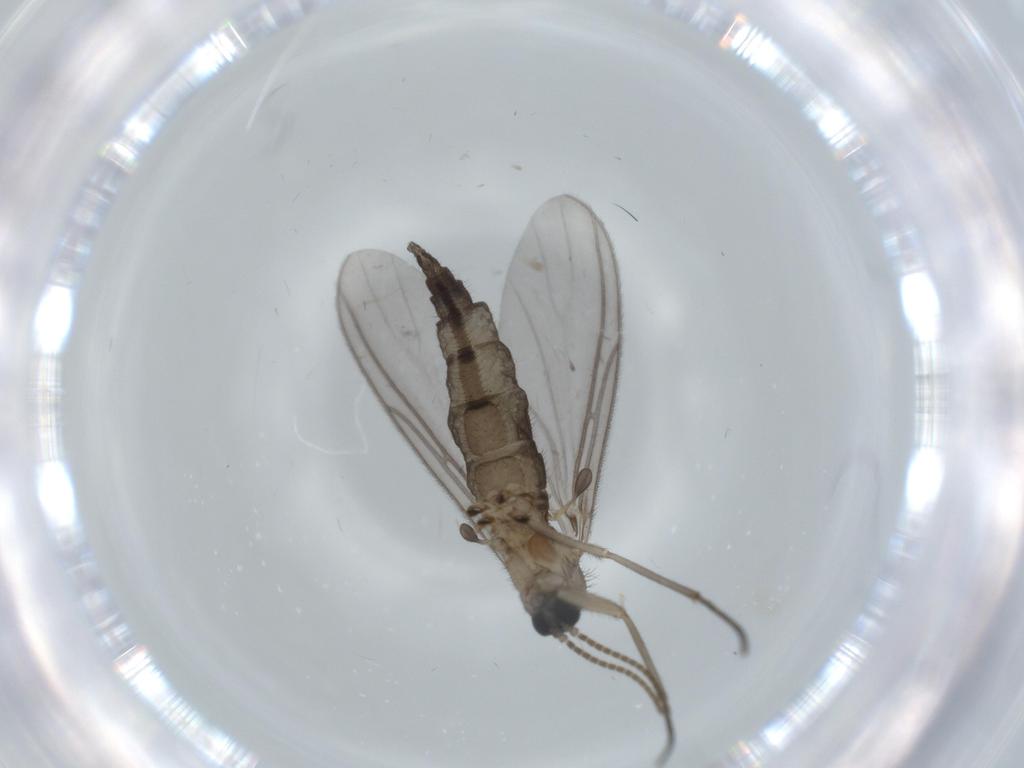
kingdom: Animalia
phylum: Arthropoda
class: Insecta
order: Diptera
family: Sciaridae
